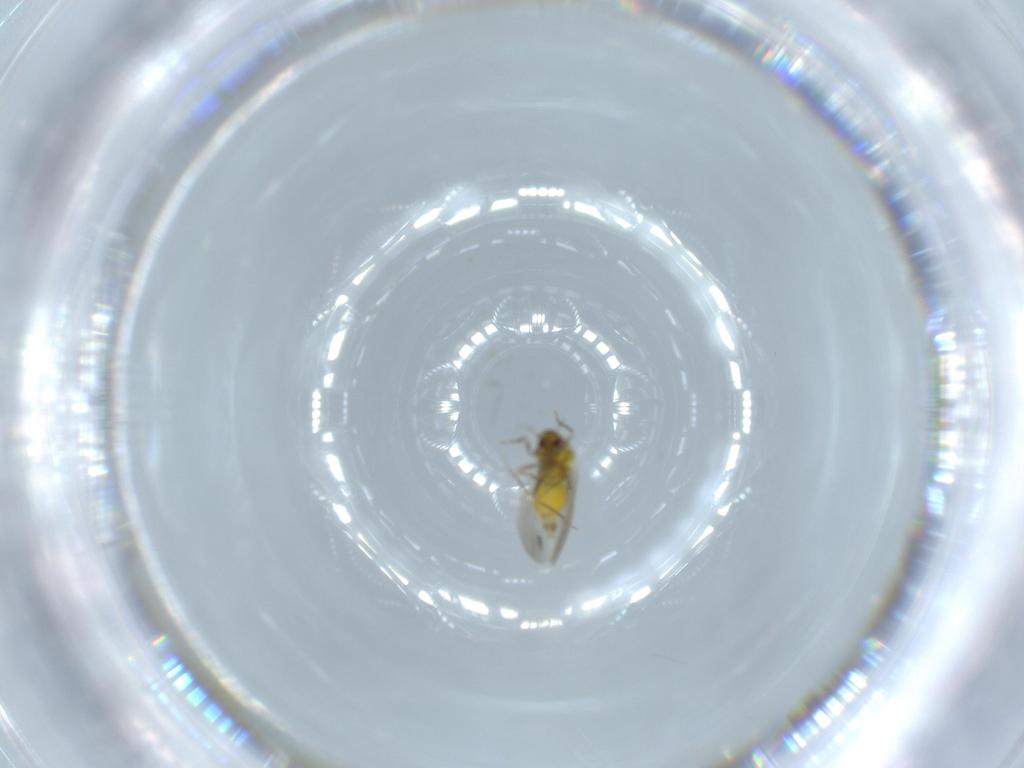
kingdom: Animalia
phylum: Arthropoda
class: Insecta
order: Hemiptera
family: Aleyrodidae
